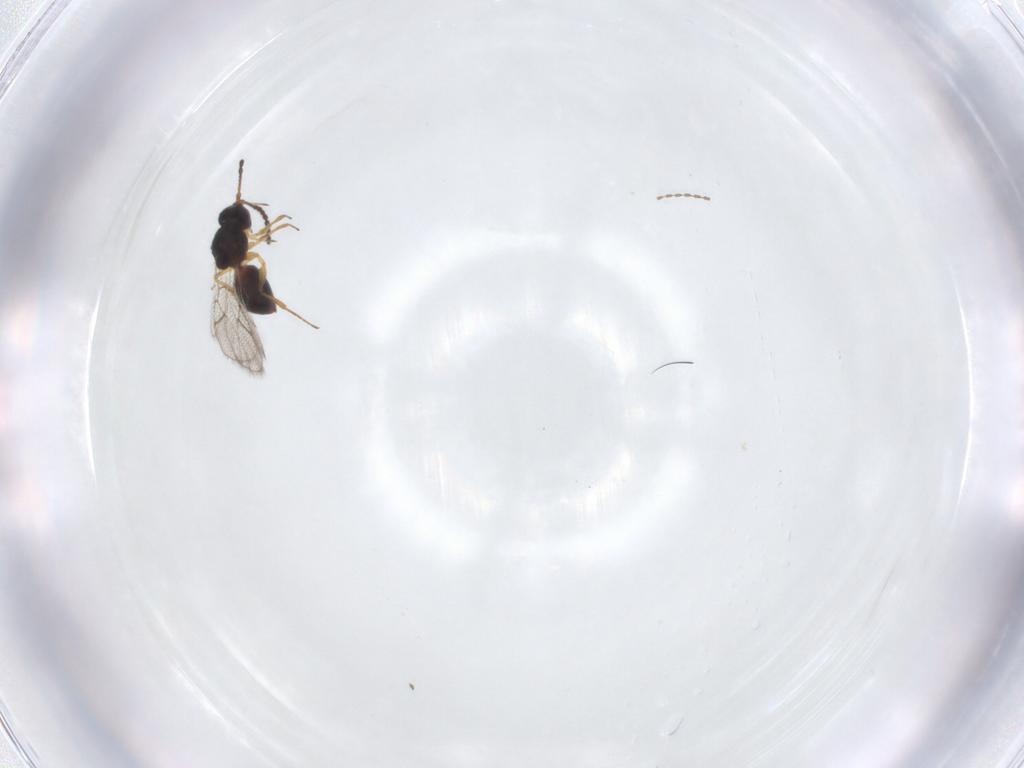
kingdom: Animalia
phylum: Arthropoda
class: Insecta
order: Hymenoptera
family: Figitidae
